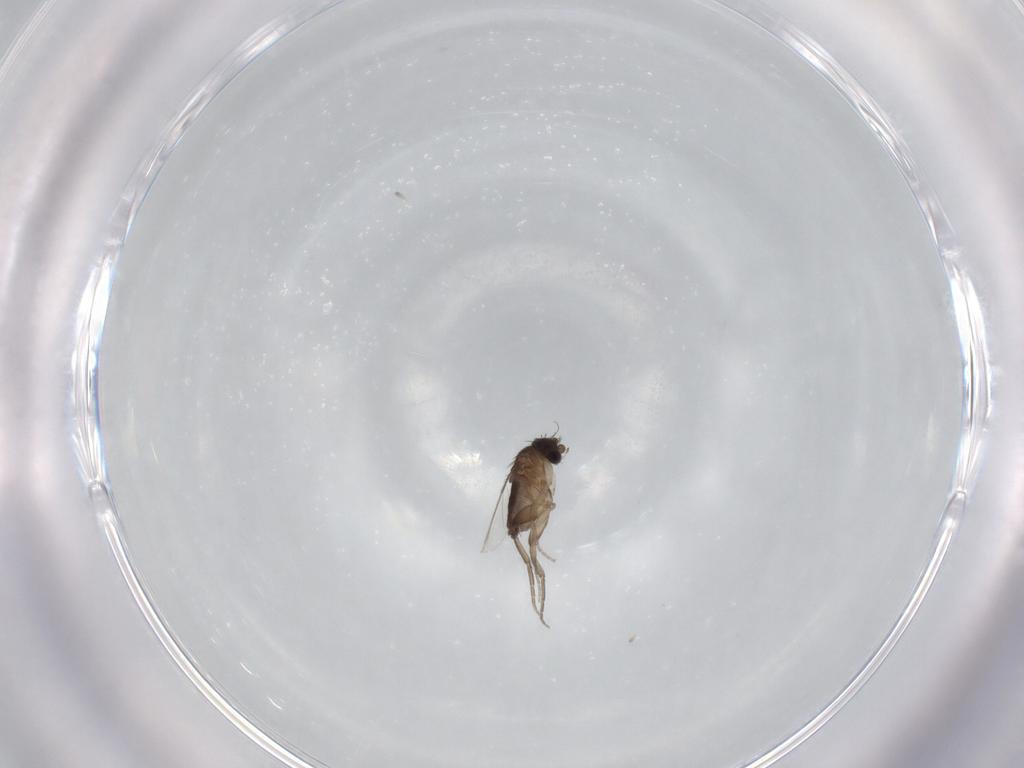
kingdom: Animalia
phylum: Arthropoda
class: Insecta
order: Diptera
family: Phoridae
